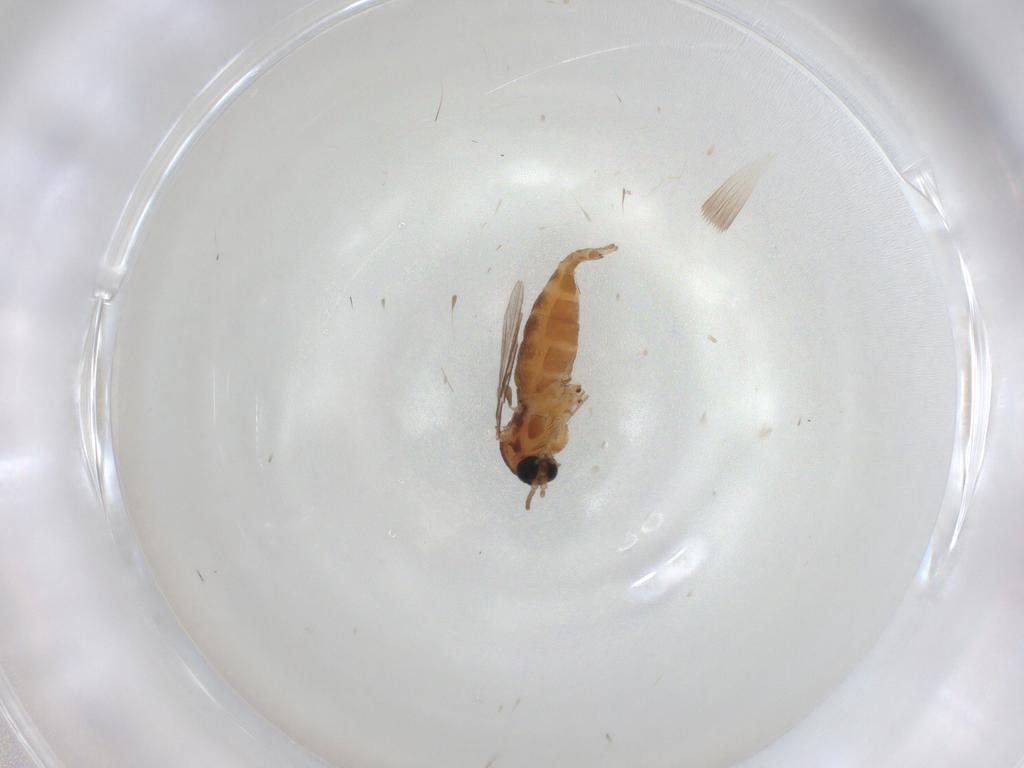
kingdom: Animalia
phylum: Arthropoda
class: Insecta
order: Diptera
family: Sciaridae
